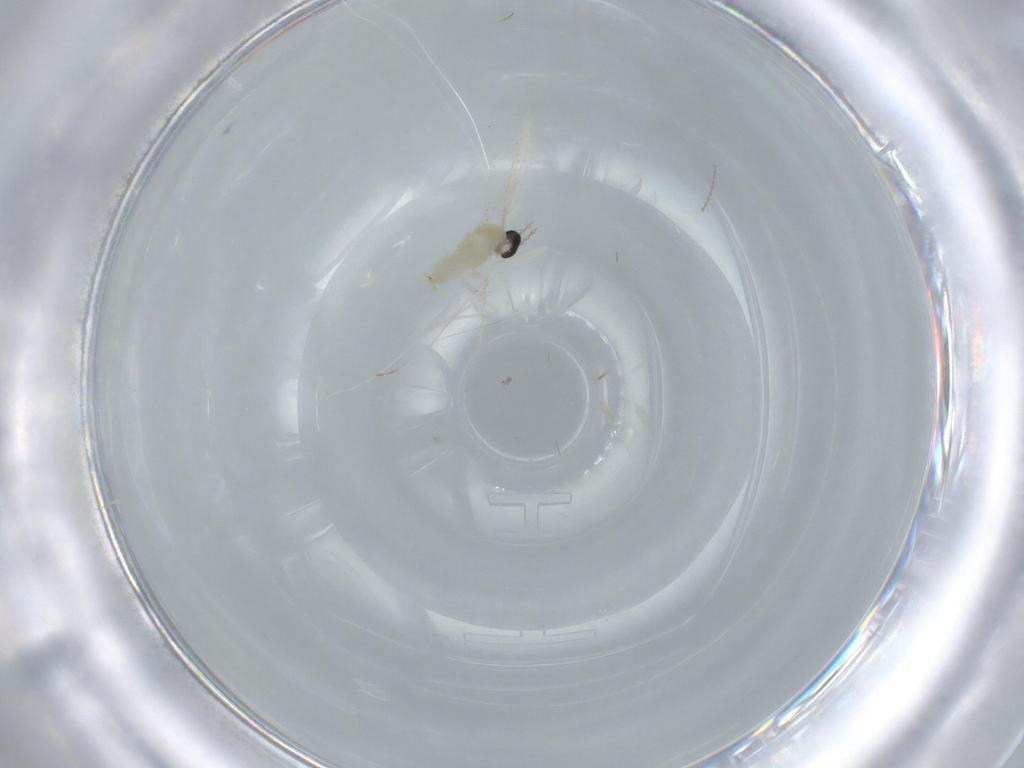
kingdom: Animalia
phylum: Arthropoda
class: Insecta
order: Diptera
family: Cecidomyiidae
